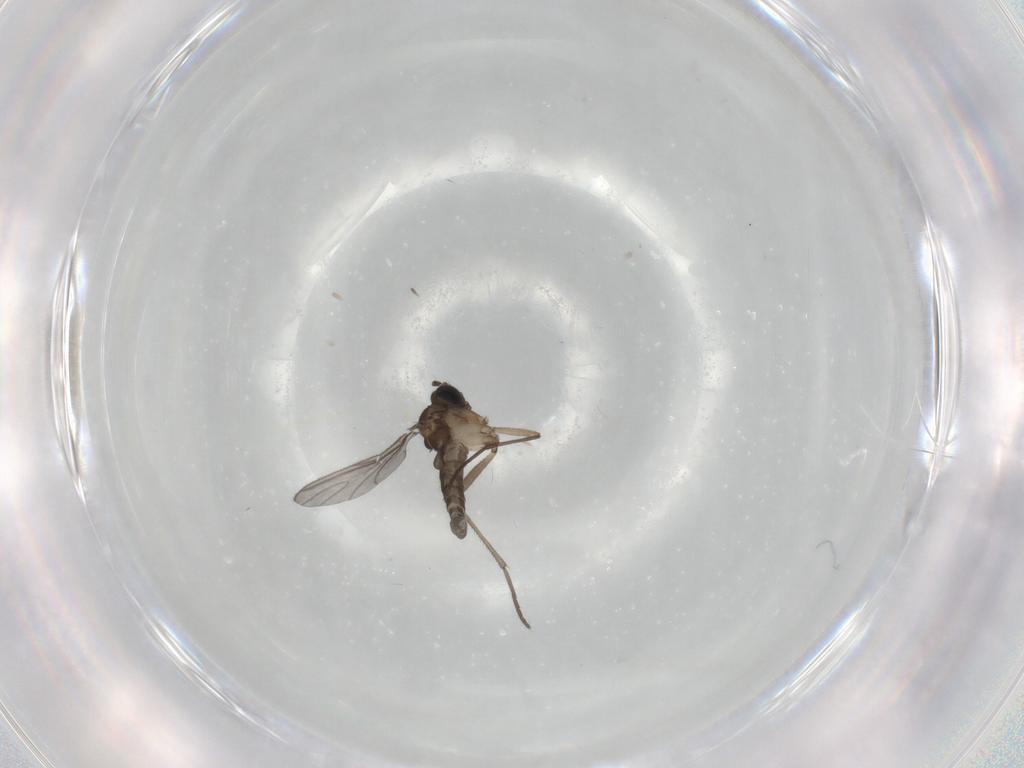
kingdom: Animalia
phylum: Arthropoda
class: Insecta
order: Diptera
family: Sciaridae
